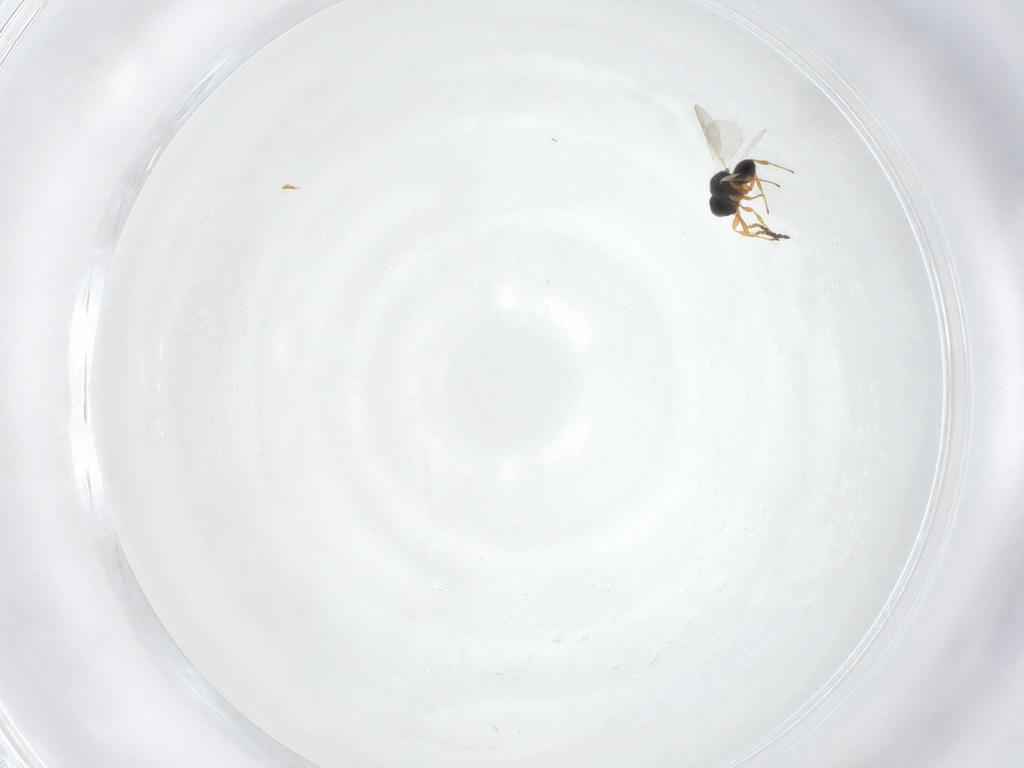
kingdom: Animalia
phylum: Arthropoda
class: Insecta
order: Hymenoptera
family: Platygastridae
